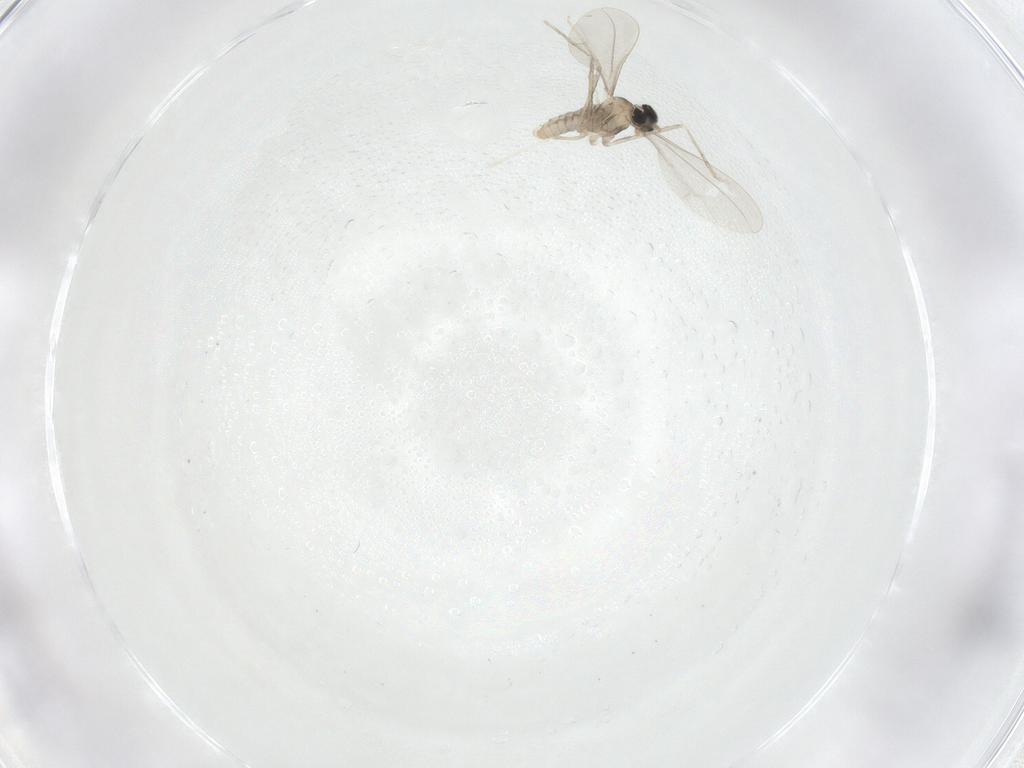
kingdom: Animalia
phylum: Arthropoda
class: Insecta
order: Diptera
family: Cecidomyiidae
